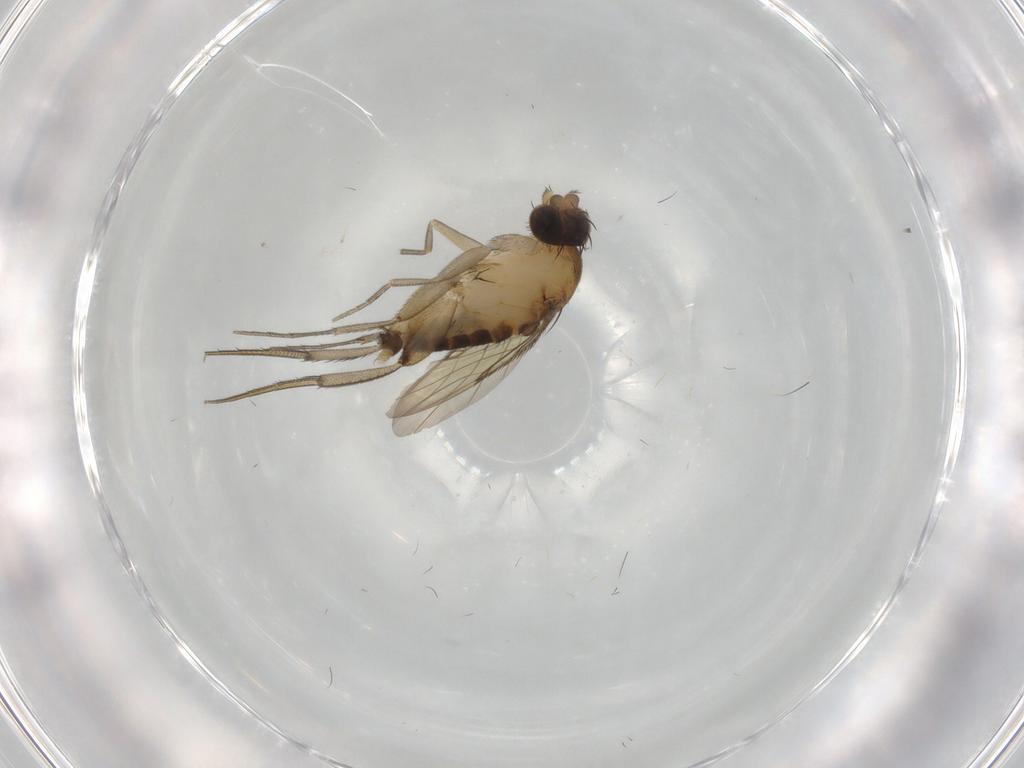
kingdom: Animalia
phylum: Arthropoda
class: Insecta
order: Diptera
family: Phoridae
